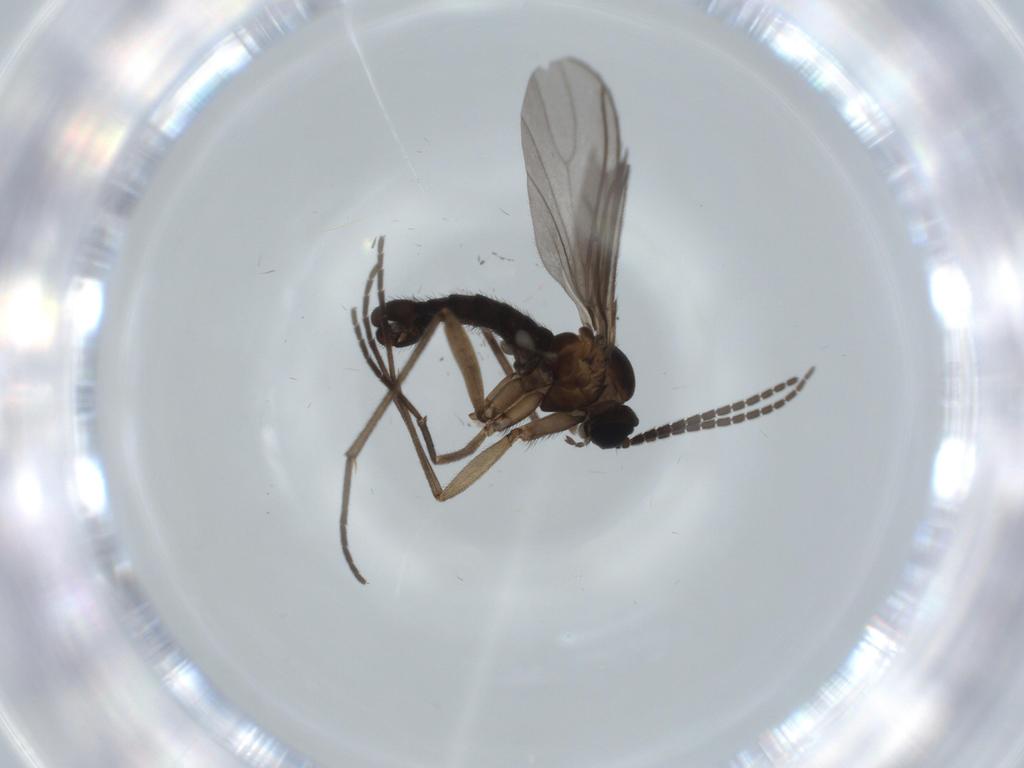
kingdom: Animalia
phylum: Arthropoda
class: Insecta
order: Diptera
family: Sciaridae
